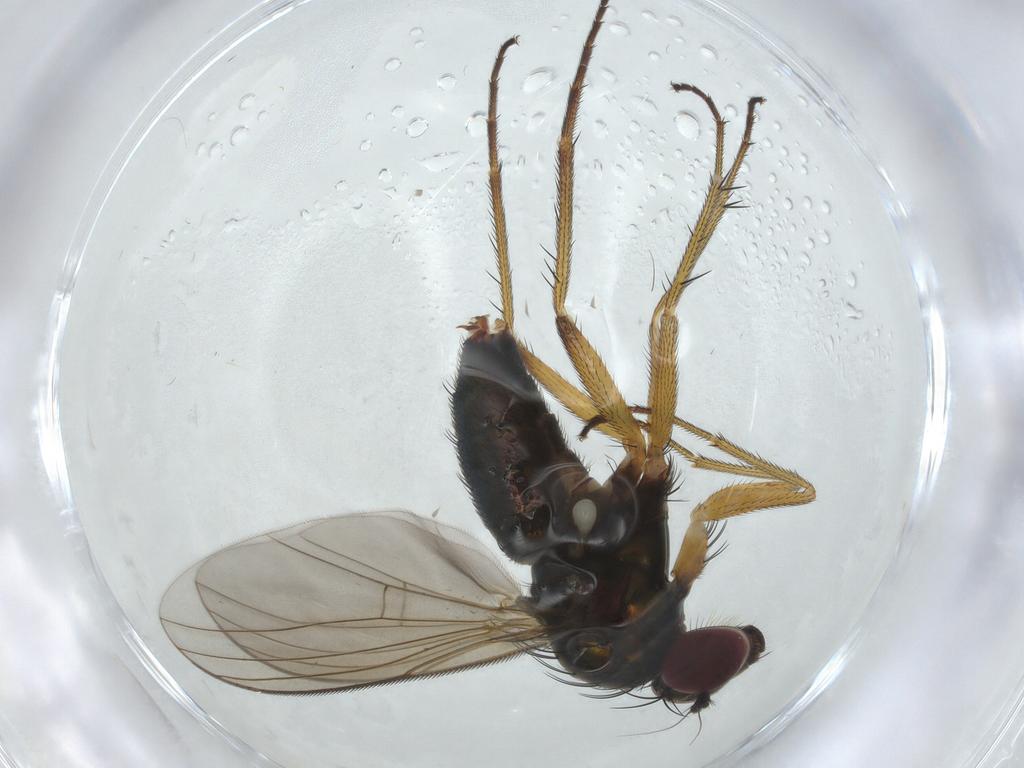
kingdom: Animalia
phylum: Arthropoda
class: Insecta
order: Diptera
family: Dolichopodidae
